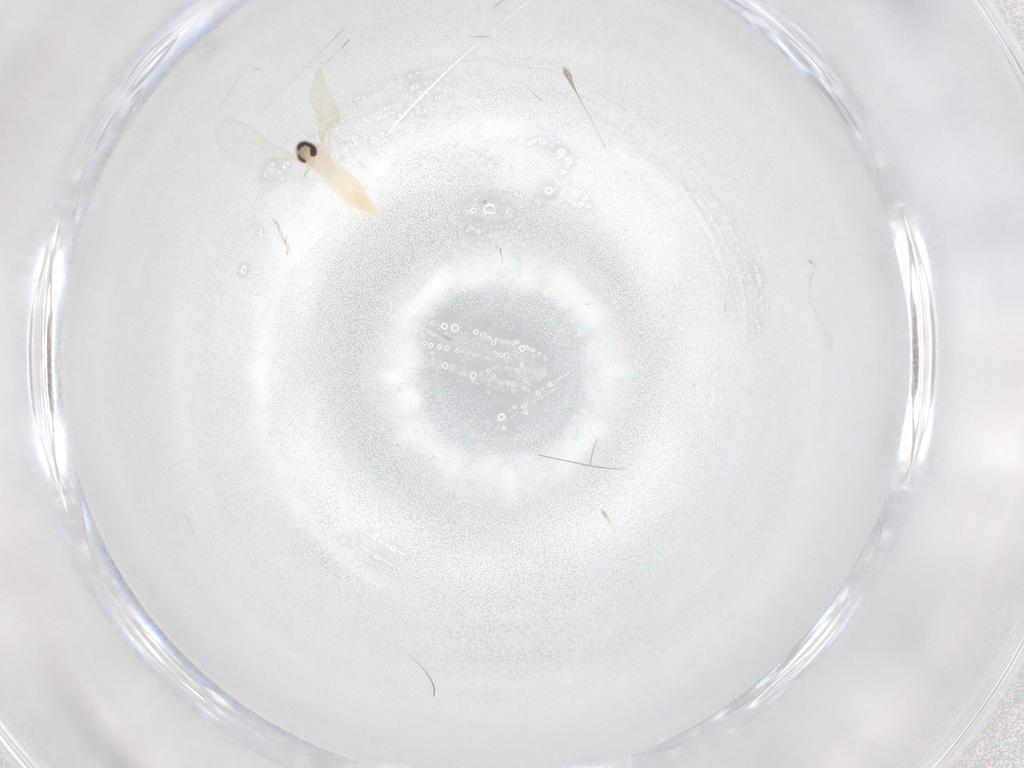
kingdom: Animalia
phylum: Arthropoda
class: Insecta
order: Diptera
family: Cecidomyiidae
